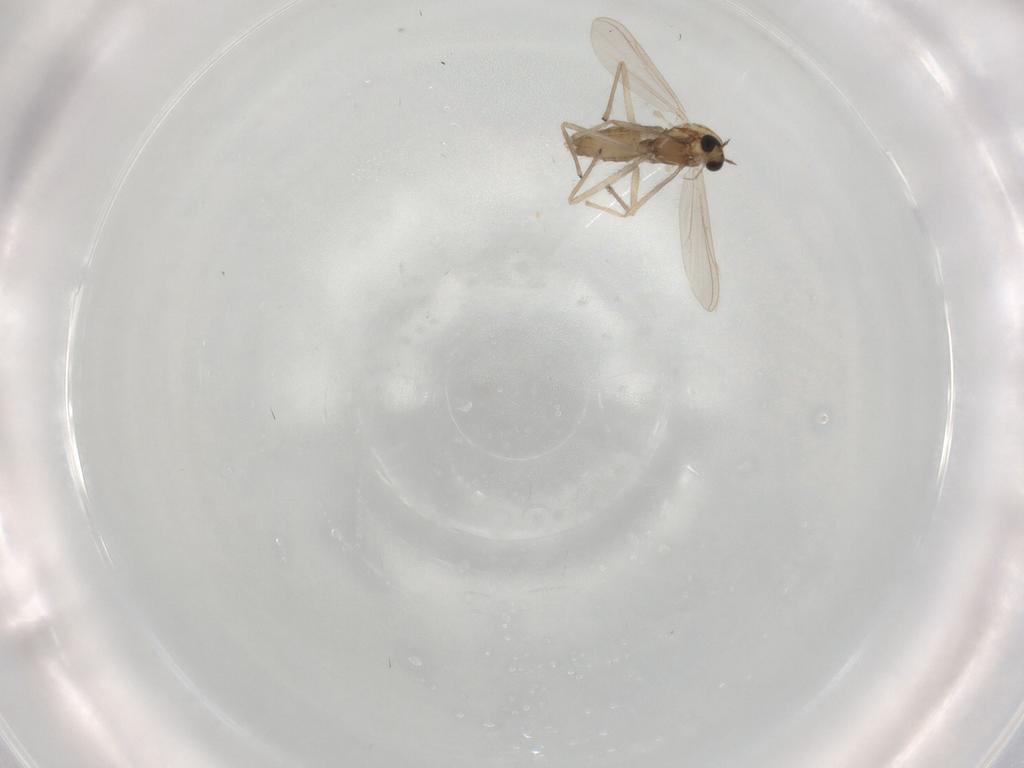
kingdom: Animalia
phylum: Arthropoda
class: Insecta
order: Diptera
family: Chironomidae
